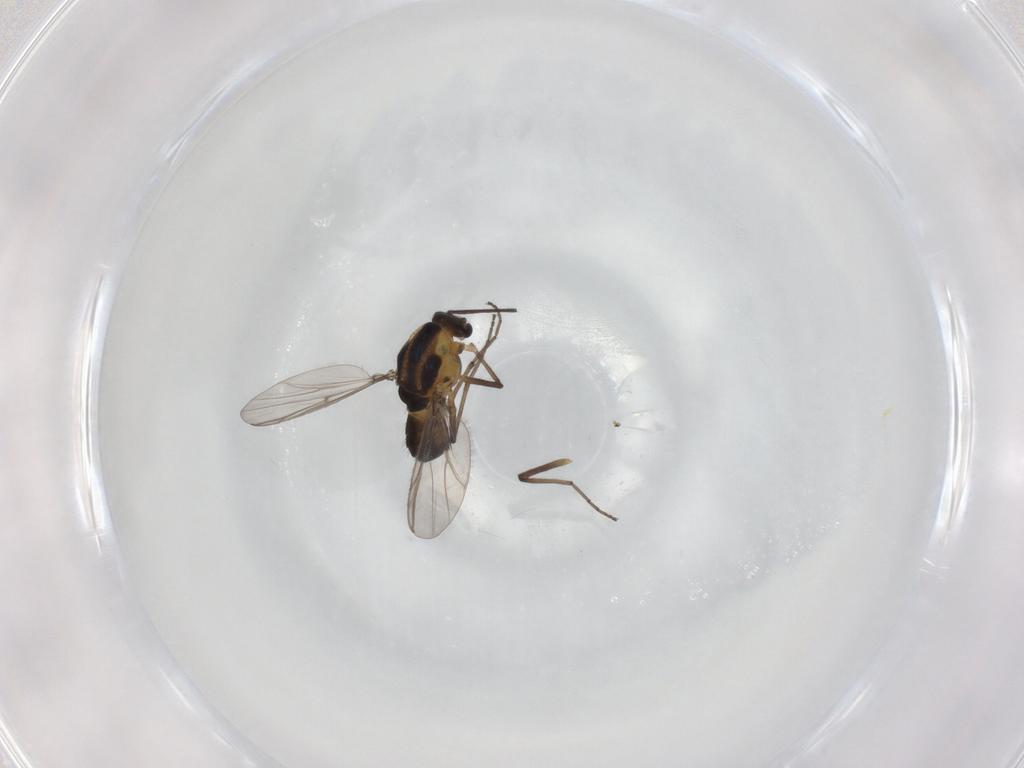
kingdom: Animalia
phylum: Arthropoda
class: Insecta
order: Diptera
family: Chironomidae
